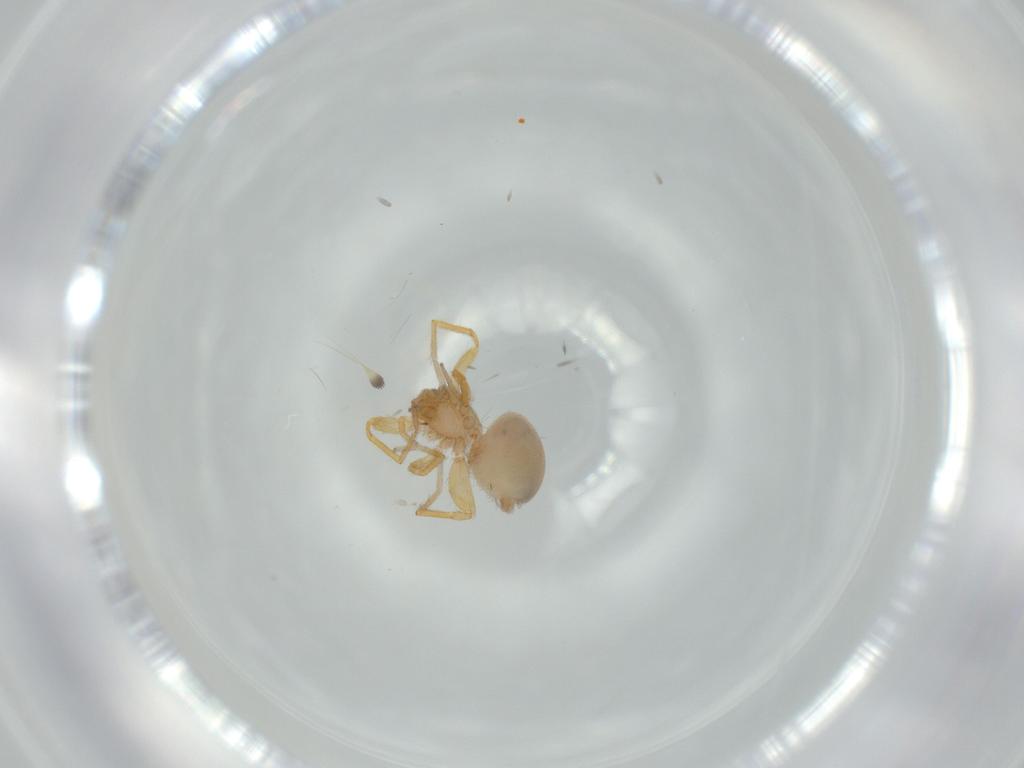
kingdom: Animalia
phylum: Arthropoda
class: Arachnida
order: Araneae
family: Oonopidae
